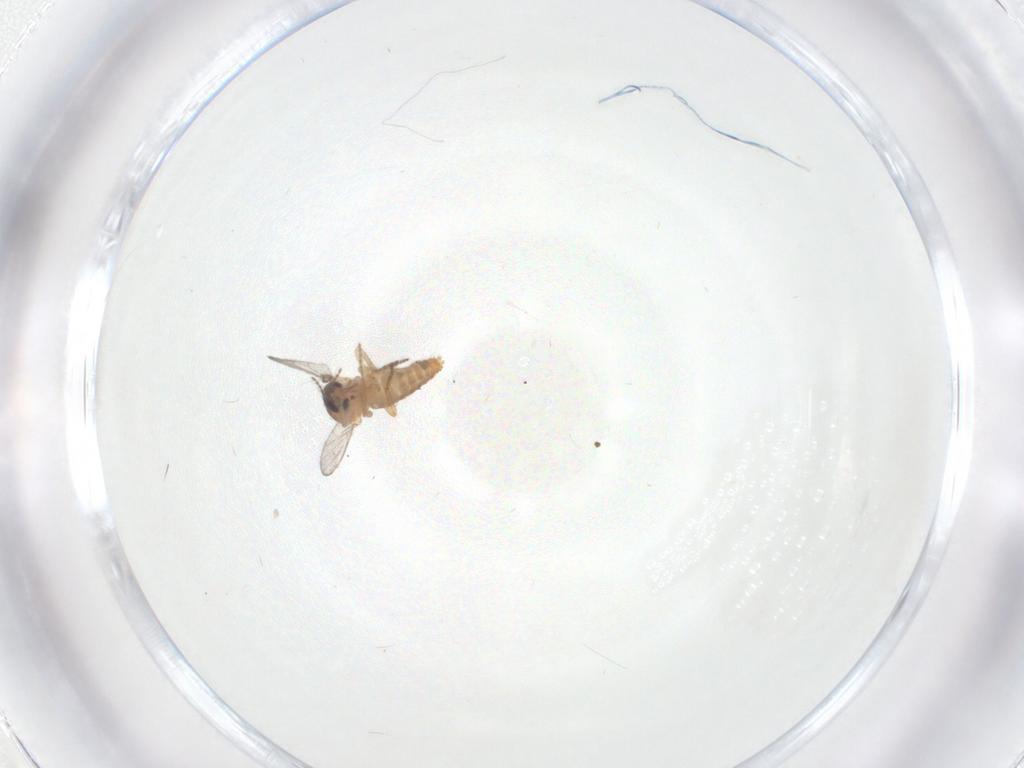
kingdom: Animalia
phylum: Arthropoda
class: Insecta
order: Diptera
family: Ceratopogonidae
